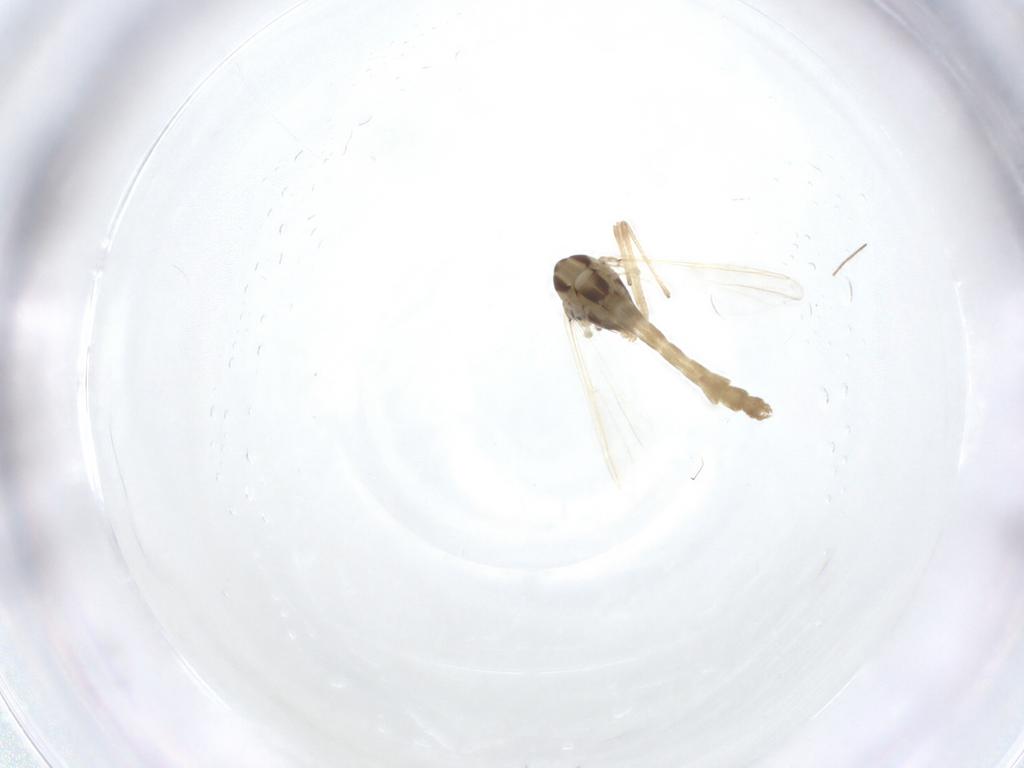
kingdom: Animalia
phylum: Arthropoda
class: Insecta
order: Diptera
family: Chironomidae
